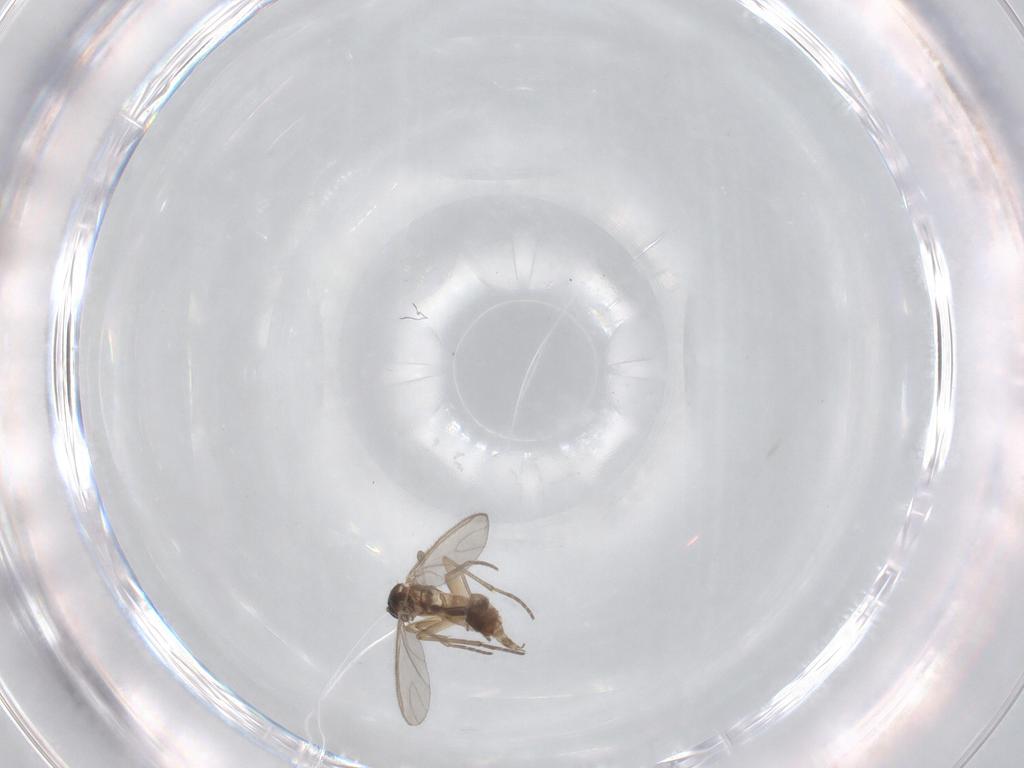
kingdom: Animalia
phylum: Arthropoda
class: Insecta
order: Diptera
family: Sciaridae
